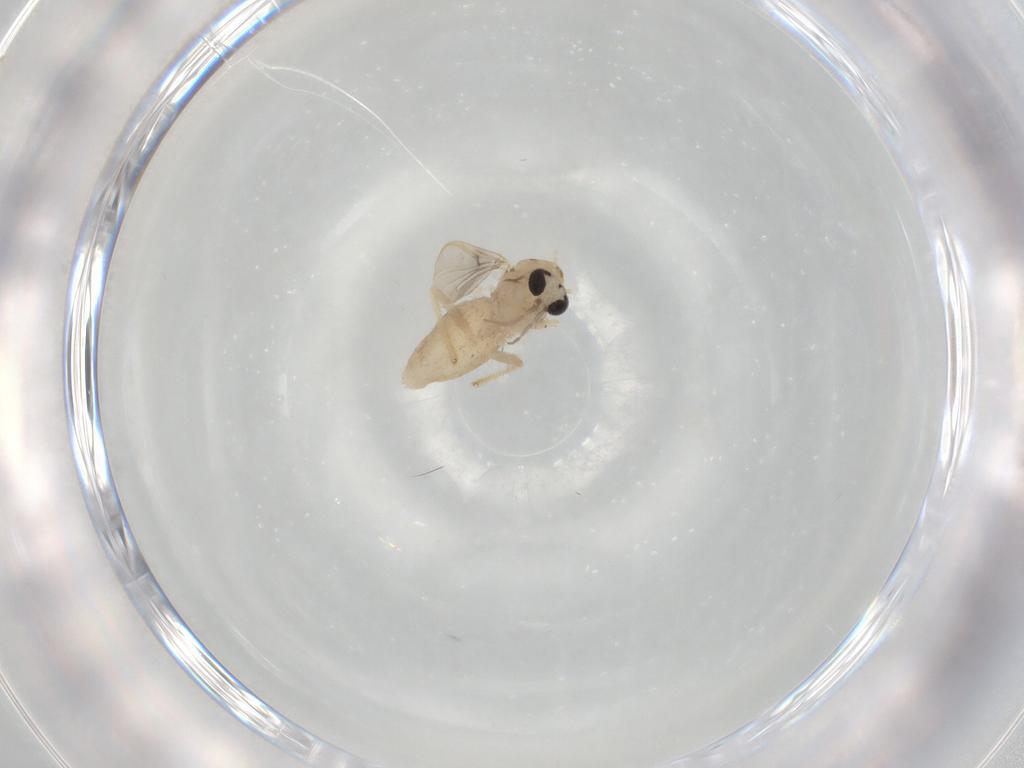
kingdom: Animalia
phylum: Arthropoda
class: Insecta
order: Diptera
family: Chironomidae
